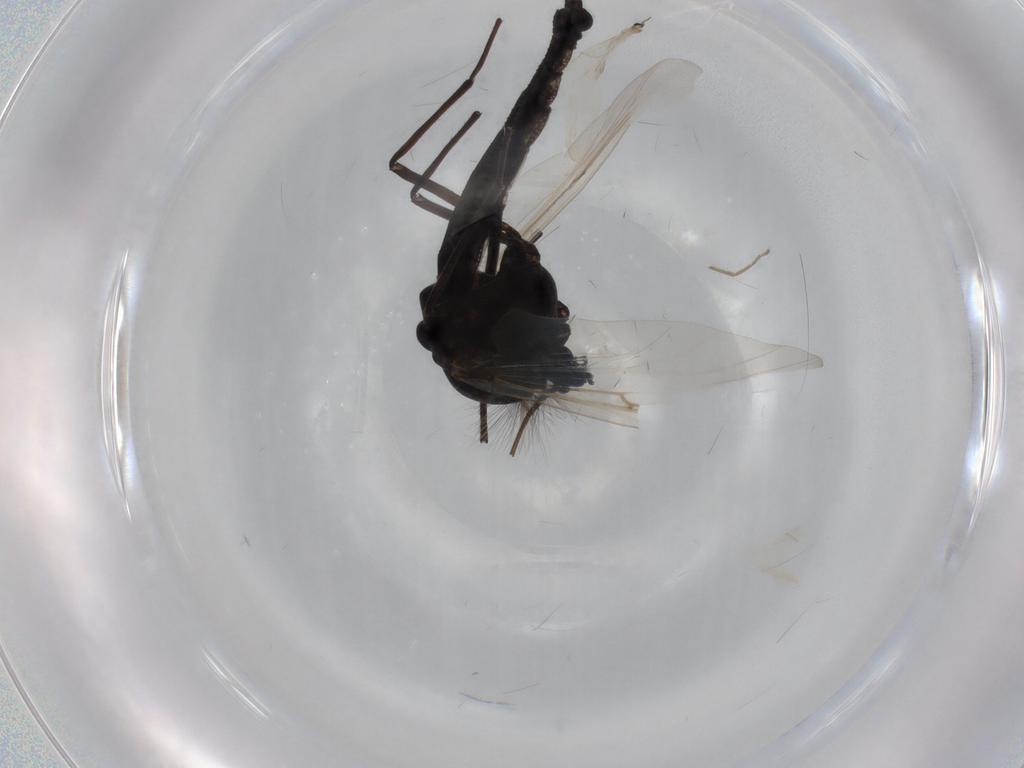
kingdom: Animalia
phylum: Arthropoda
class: Insecta
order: Diptera
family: Chironomidae
